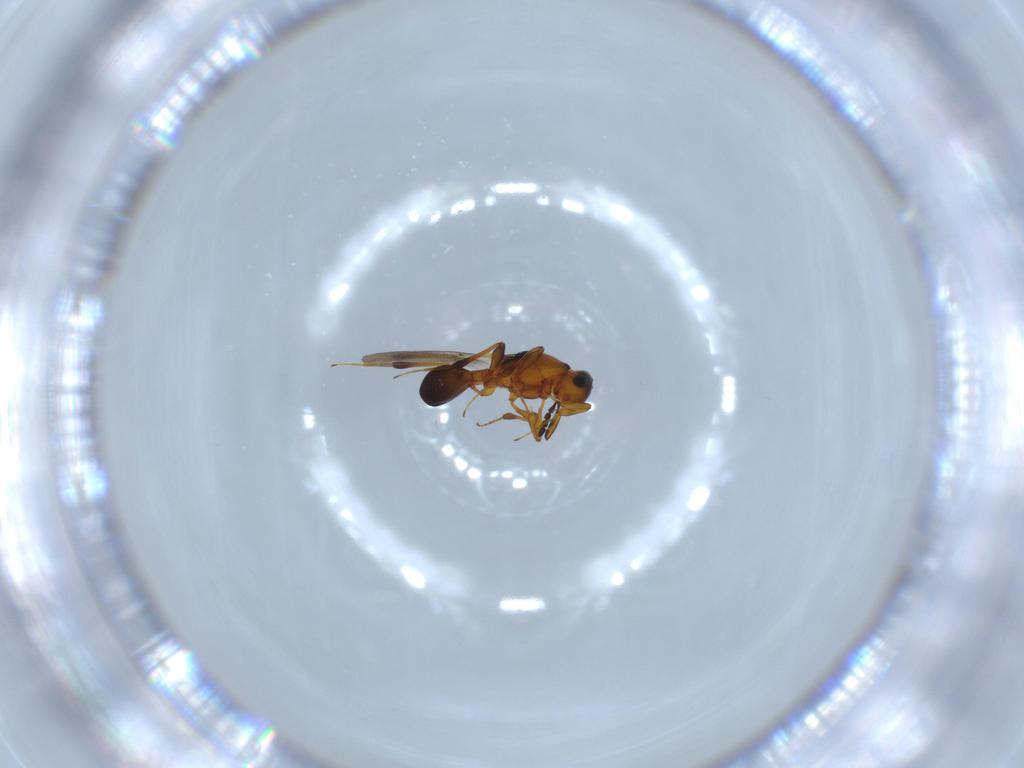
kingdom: Animalia
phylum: Arthropoda
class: Insecta
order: Hymenoptera
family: Platygastridae
